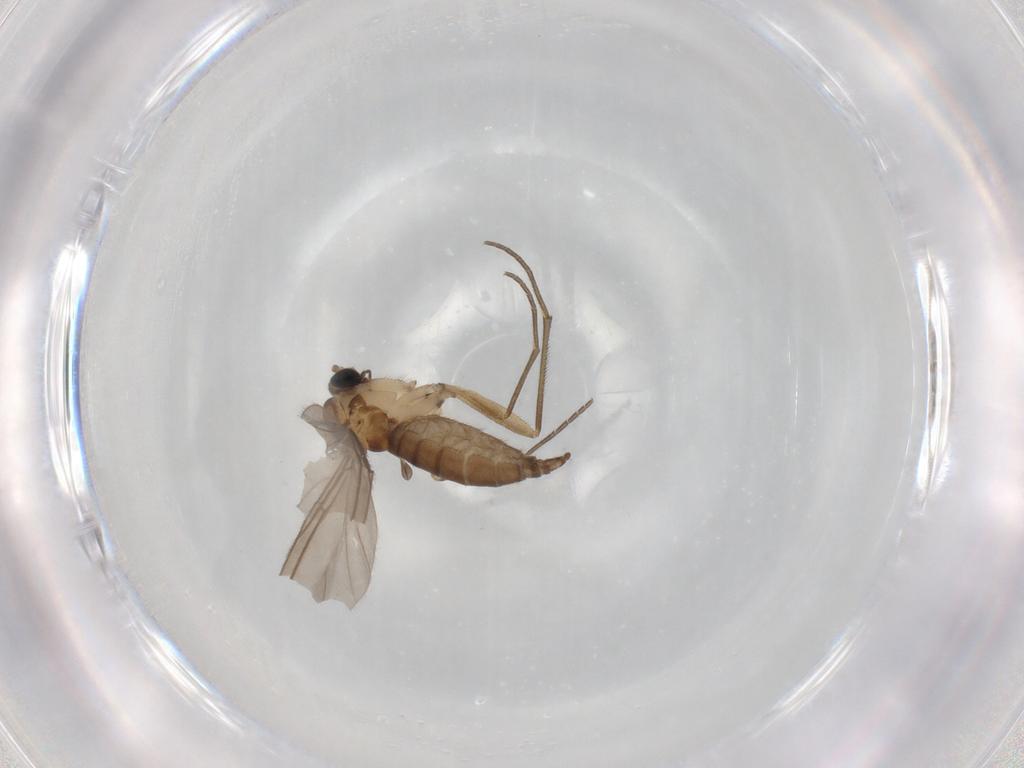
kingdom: Animalia
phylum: Arthropoda
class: Insecta
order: Diptera
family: Sciaridae
